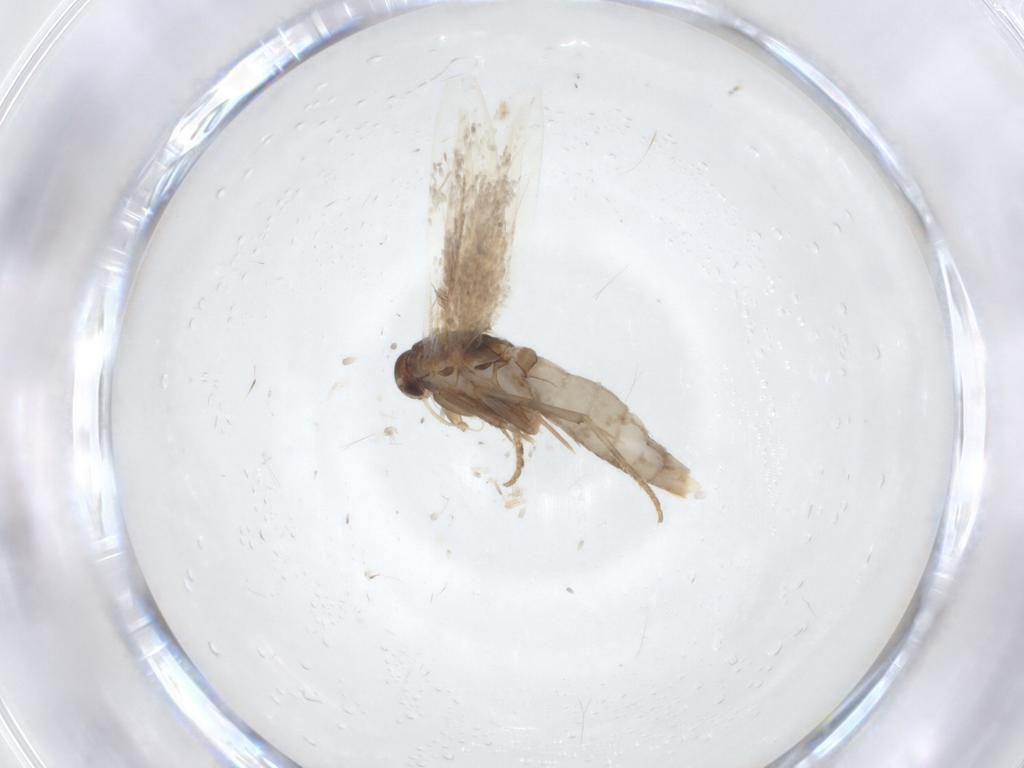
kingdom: Animalia
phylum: Arthropoda
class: Insecta
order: Lepidoptera
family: Elachistidae
